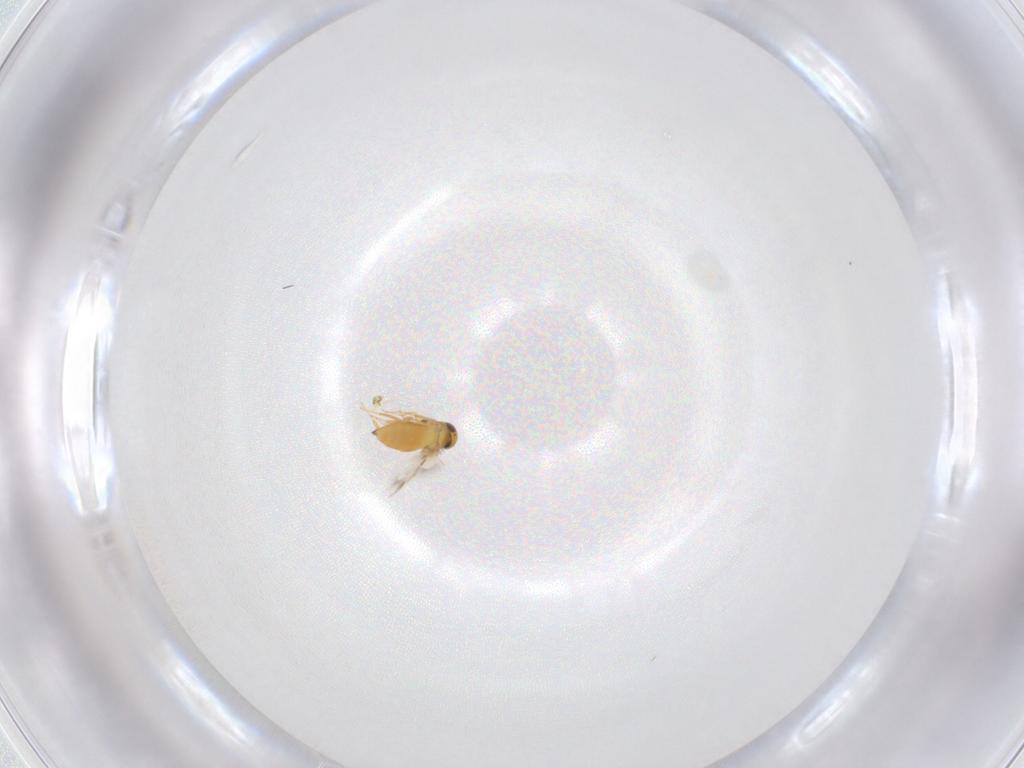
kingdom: Animalia
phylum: Arthropoda
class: Insecta
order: Hymenoptera
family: Signiphoridae
